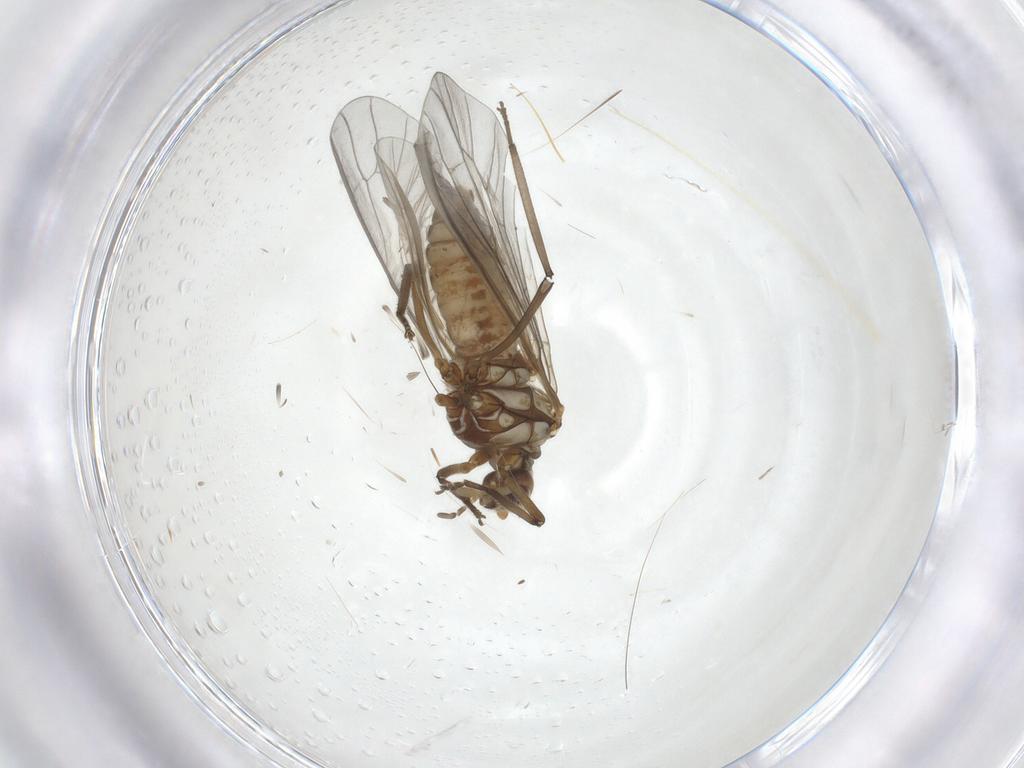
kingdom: Animalia
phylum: Arthropoda
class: Insecta
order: Neuroptera
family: Coniopterygidae
